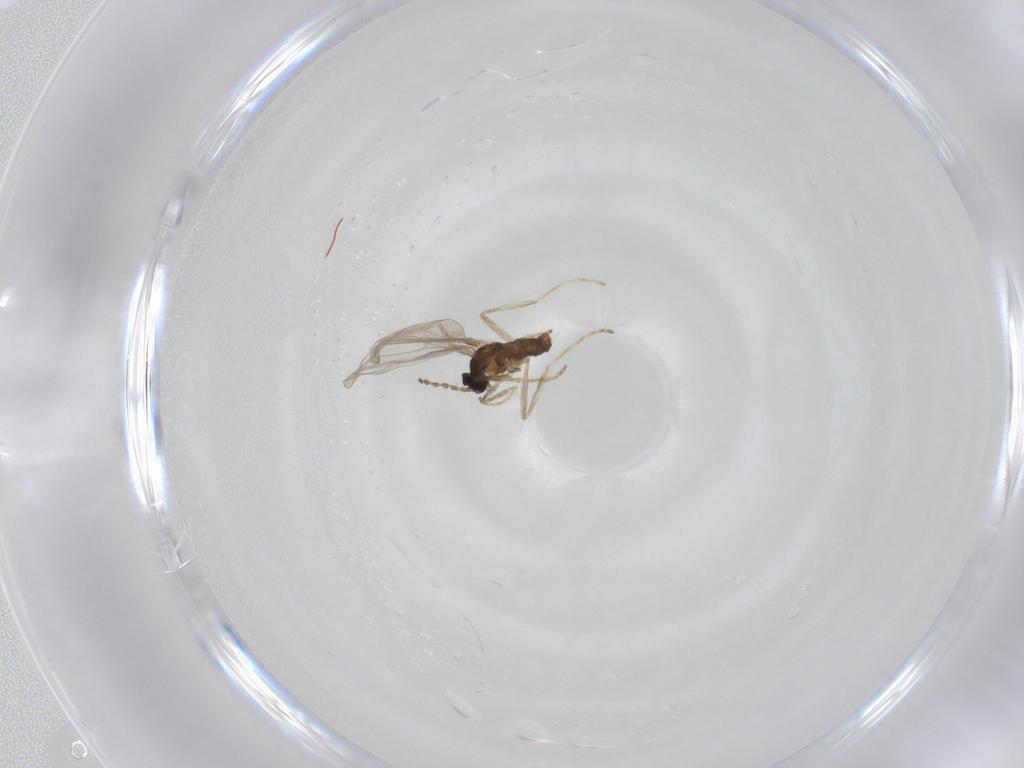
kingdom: Animalia
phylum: Arthropoda
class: Insecta
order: Diptera
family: Chironomidae
